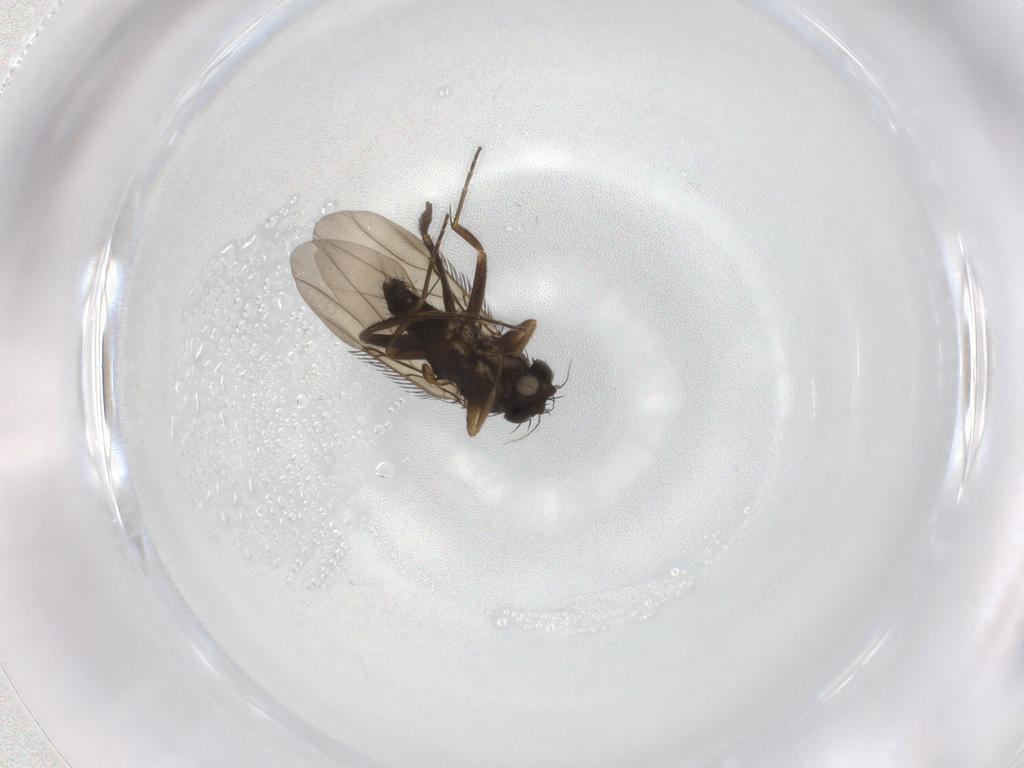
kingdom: Animalia
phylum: Arthropoda
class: Insecta
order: Diptera
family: Phoridae
